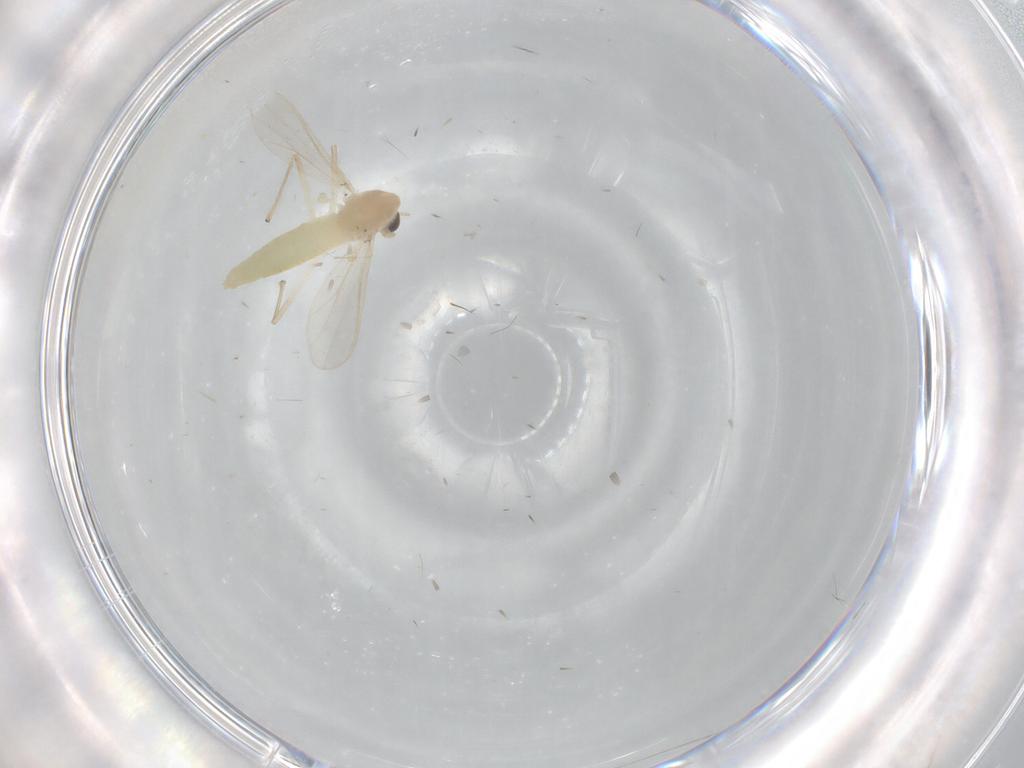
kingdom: Animalia
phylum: Arthropoda
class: Insecta
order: Diptera
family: Chironomidae
